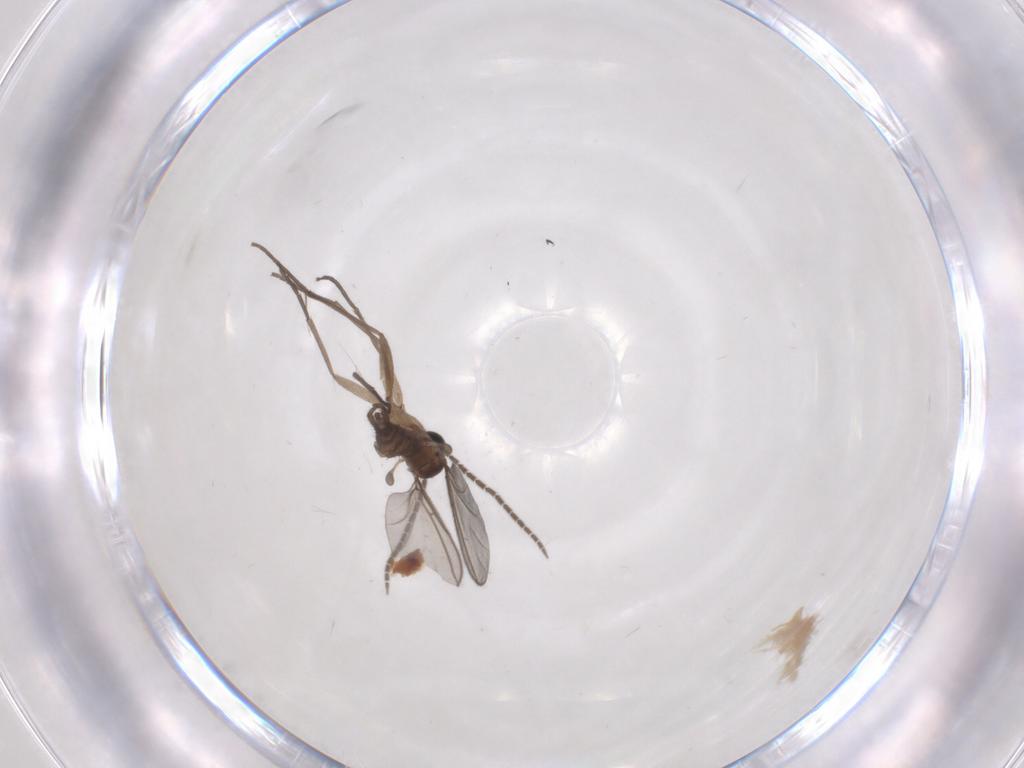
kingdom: Animalia
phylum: Arthropoda
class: Insecta
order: Diptera
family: Sciaridae
